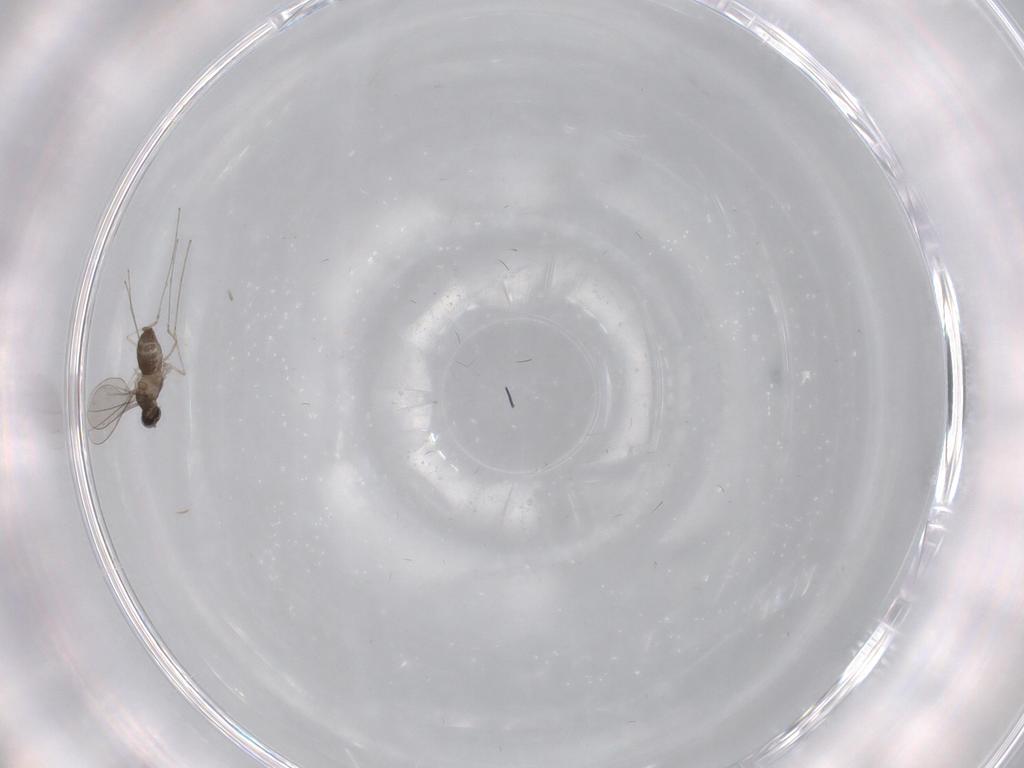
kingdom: Animalia
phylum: Arthropoda
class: Insecta
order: Diptera
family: Cecidomyiidae
